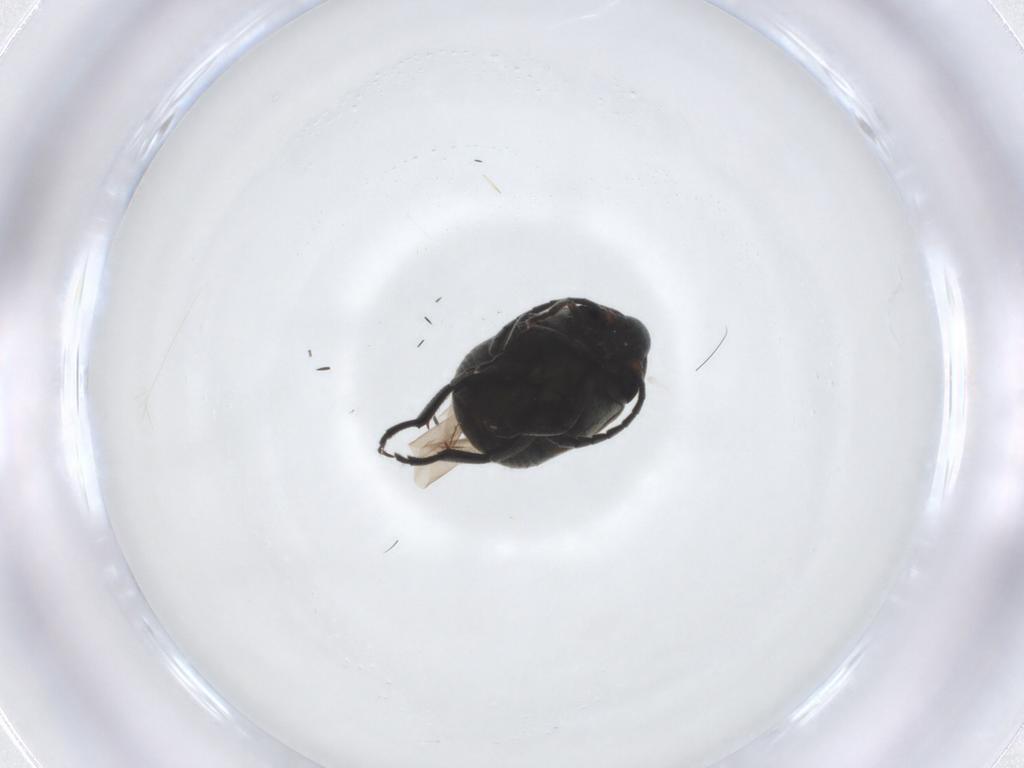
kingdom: Animalia
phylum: Arthropoda
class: Insecta
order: Coleoptera
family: Chrysomelidae
